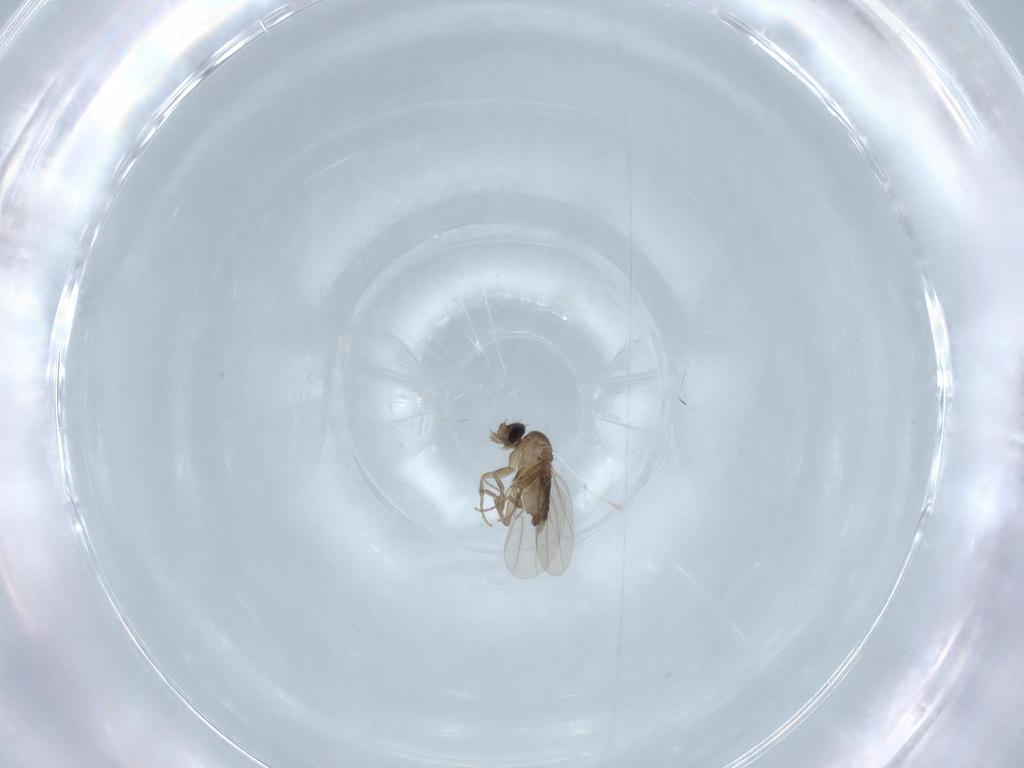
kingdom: Animalia
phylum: Arthropoda
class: Insecta
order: Diptera
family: Phoridae
